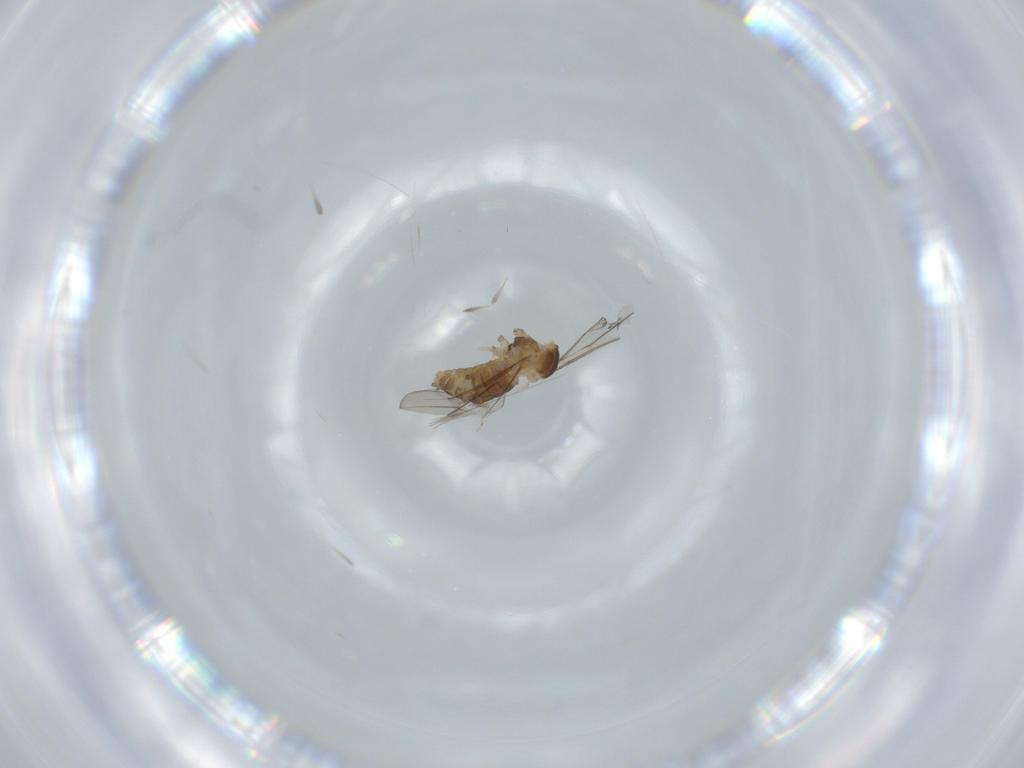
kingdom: Animalia
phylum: Arthropoda
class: Insecta
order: Diptera
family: Cecidomyiidae
